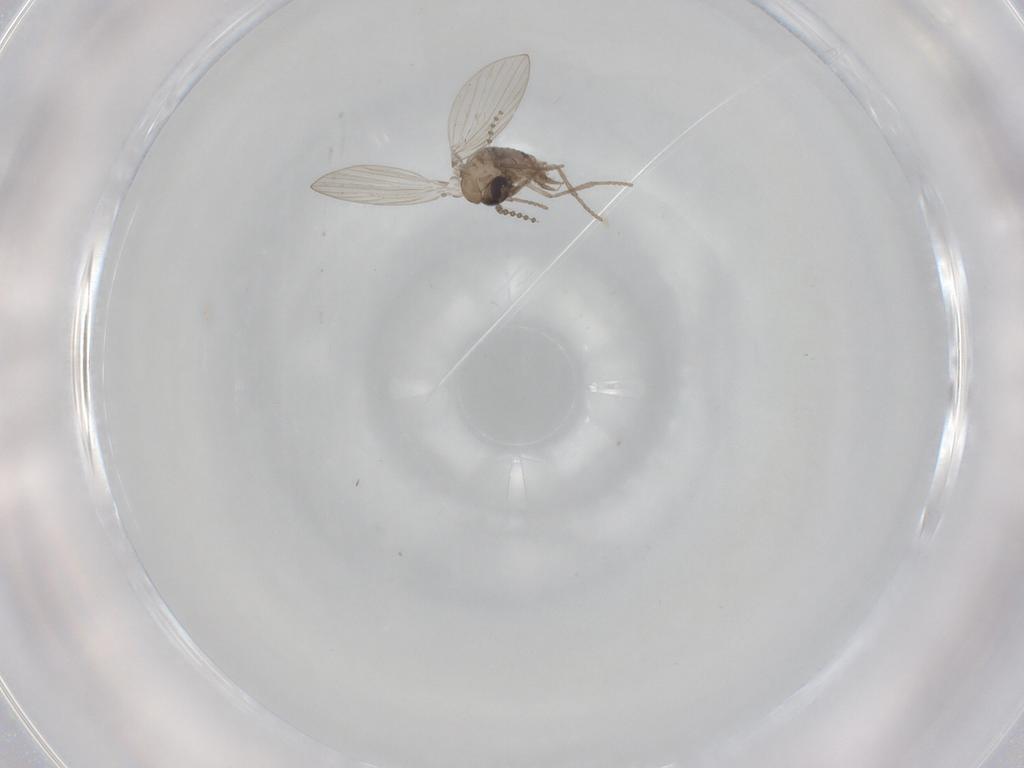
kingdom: Animalia
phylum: Arthropoda
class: Insecta
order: Diptera
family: Psychodidae
